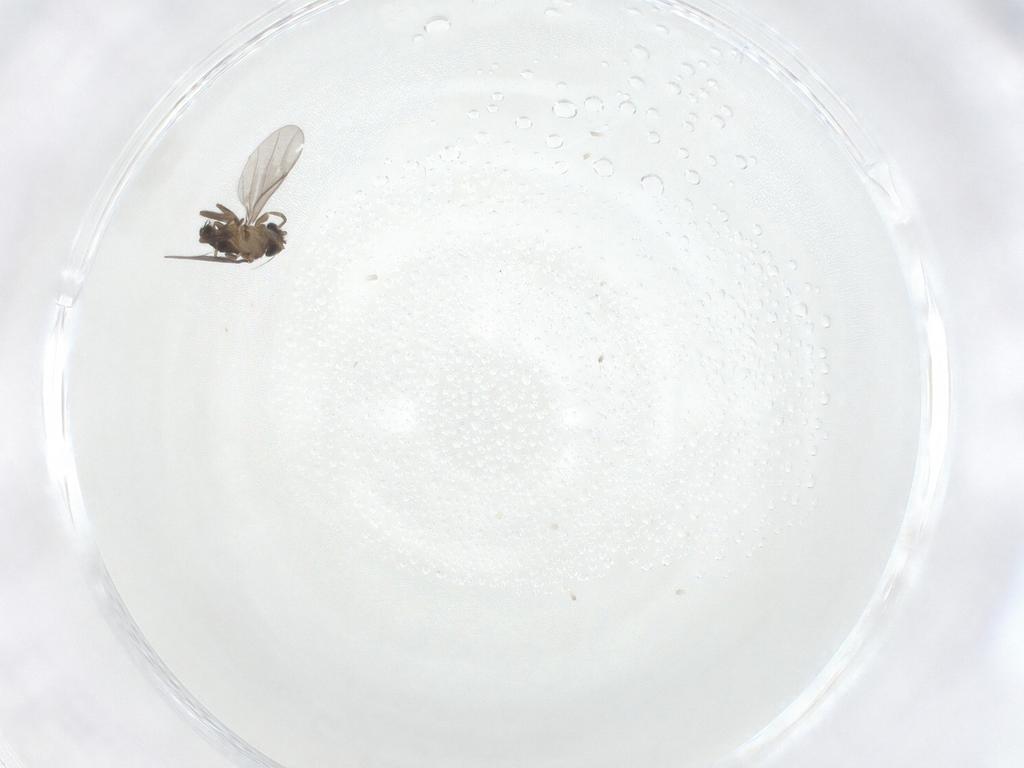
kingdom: Animalia
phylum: Arthropoda
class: Insecta
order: Diptera
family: Phoridae
